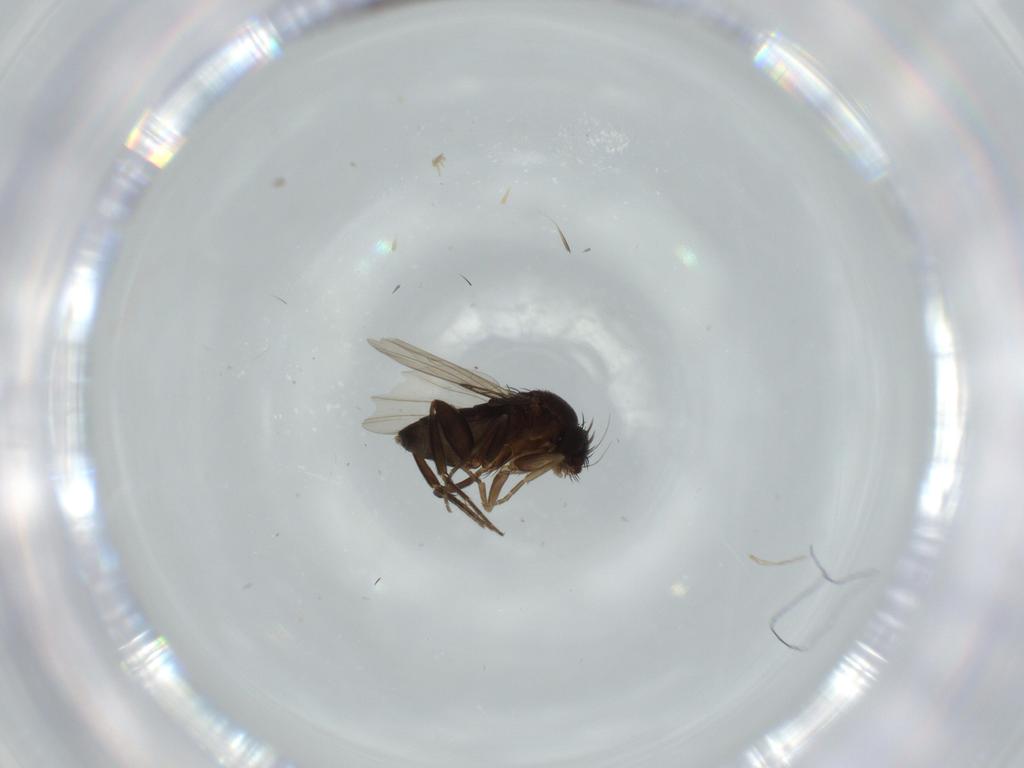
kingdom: Animalia
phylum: Arthropoda
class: Insecta
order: Diptera
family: Phoridae
